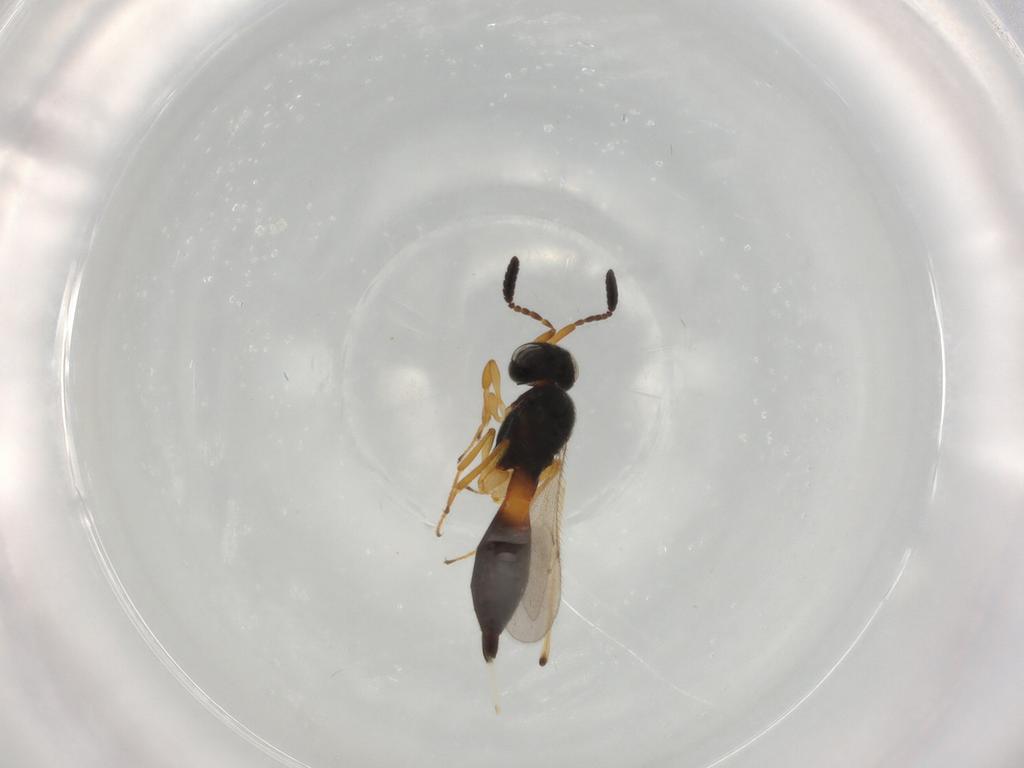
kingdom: Animalia
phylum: Arthropoda
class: Insecta
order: Hymenoptera
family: Scelionidae
